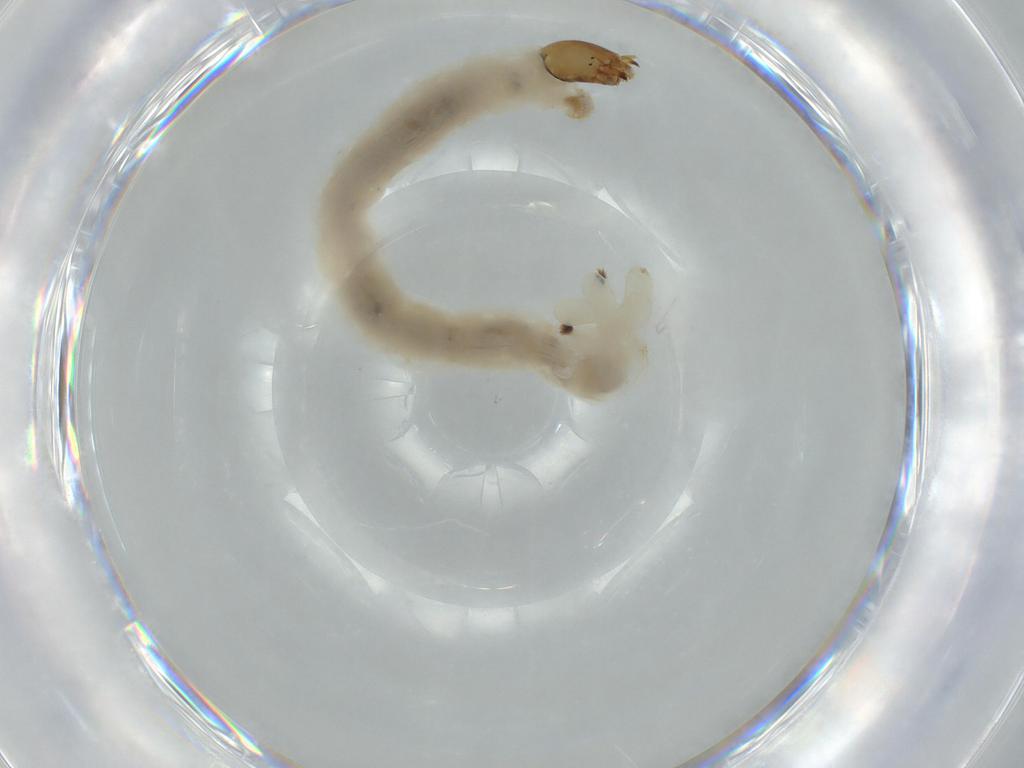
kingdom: Animalia
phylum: Arthropoda
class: Insecta
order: Diptera
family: Chironomidae
